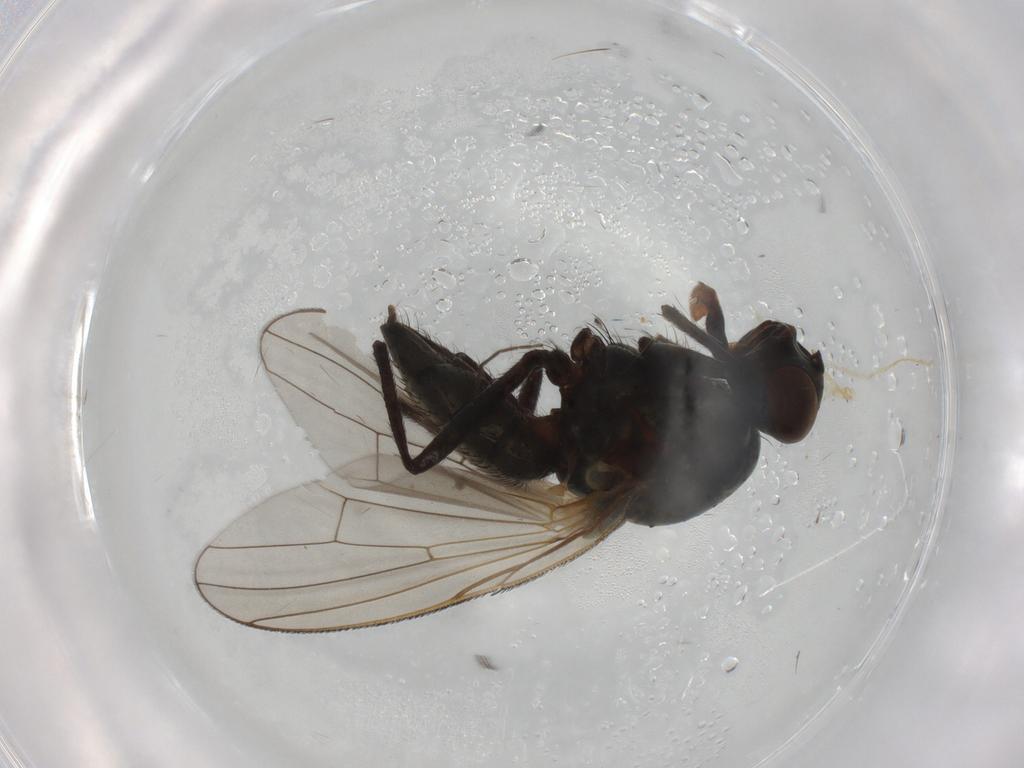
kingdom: Animalia
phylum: Arthropoda
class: Insecta
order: Diptera
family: Anthomyiidae
